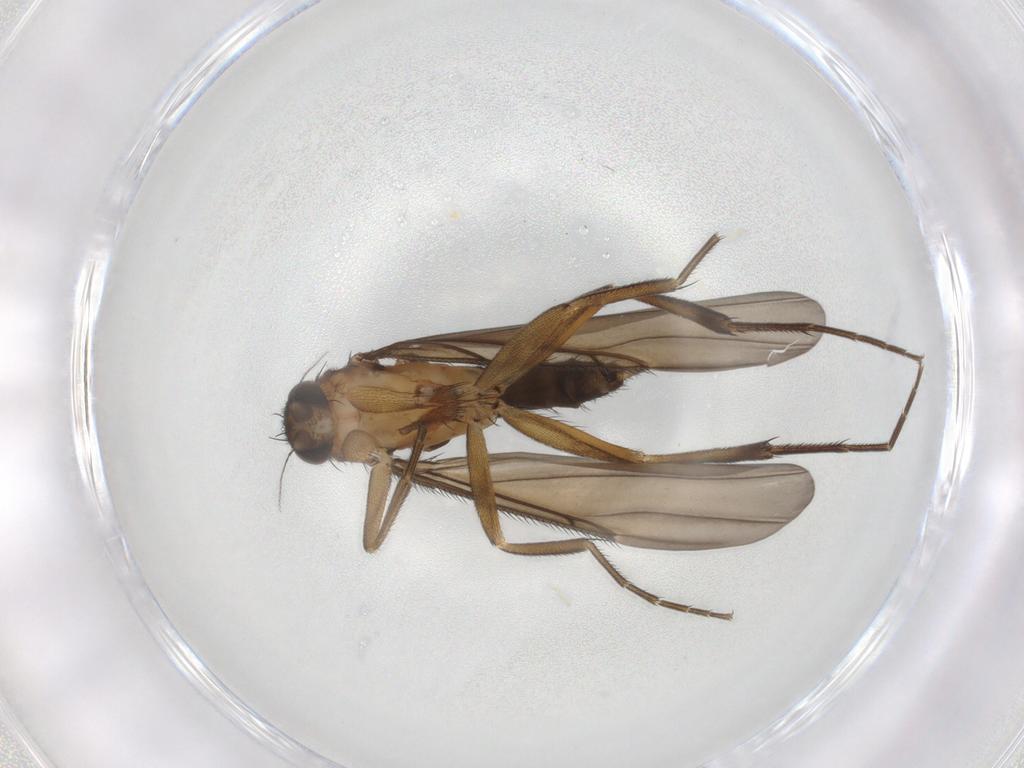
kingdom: Animalia
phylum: Arthropoda
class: Insecta
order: Diptera
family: Phoridae
